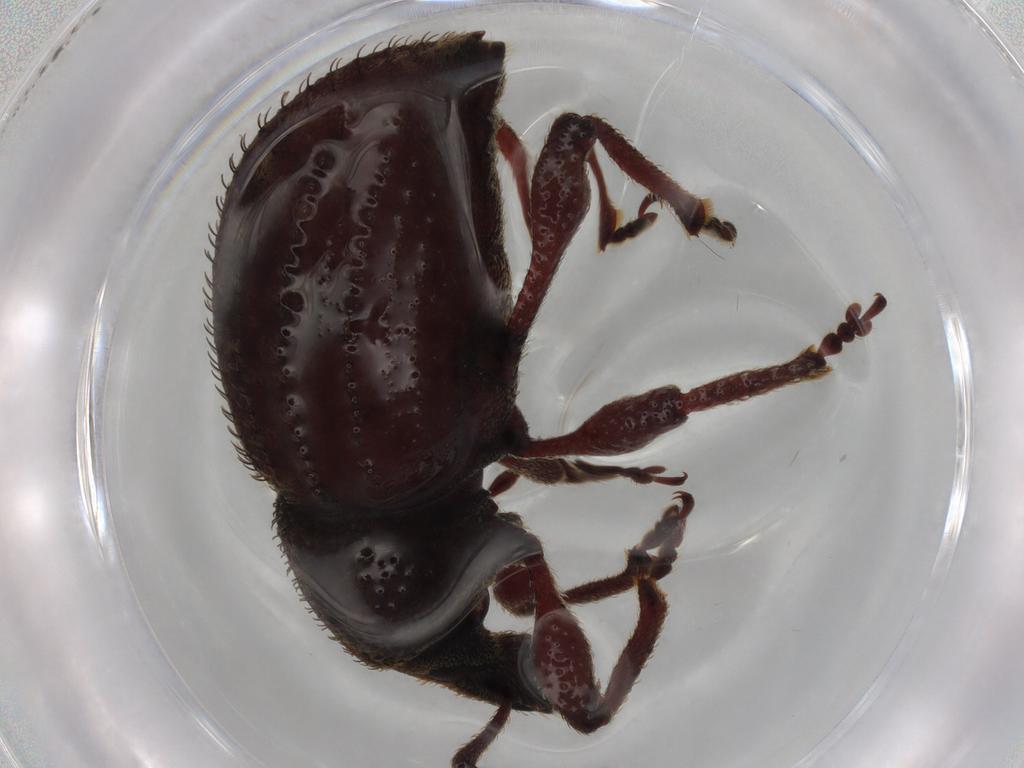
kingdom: Animalia
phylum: Arthropoda
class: Insecta
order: Coleoptera
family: Curculionidae
